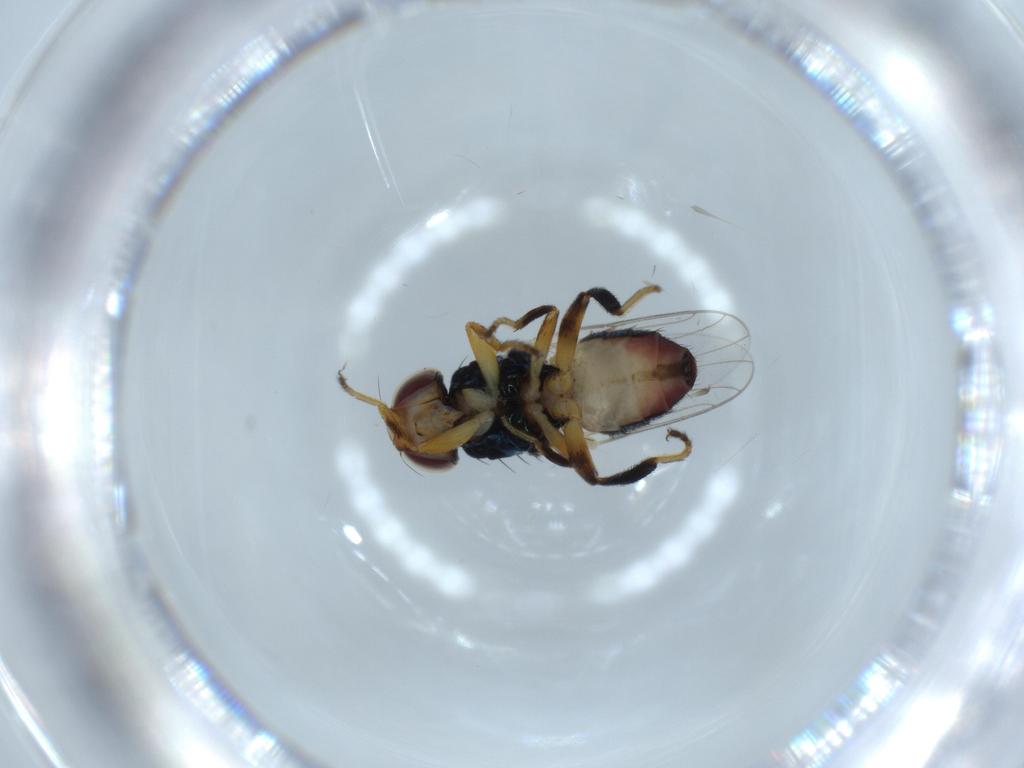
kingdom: Animalia
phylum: Arthropoda
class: Insecta
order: Diptera
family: Chloropidae
